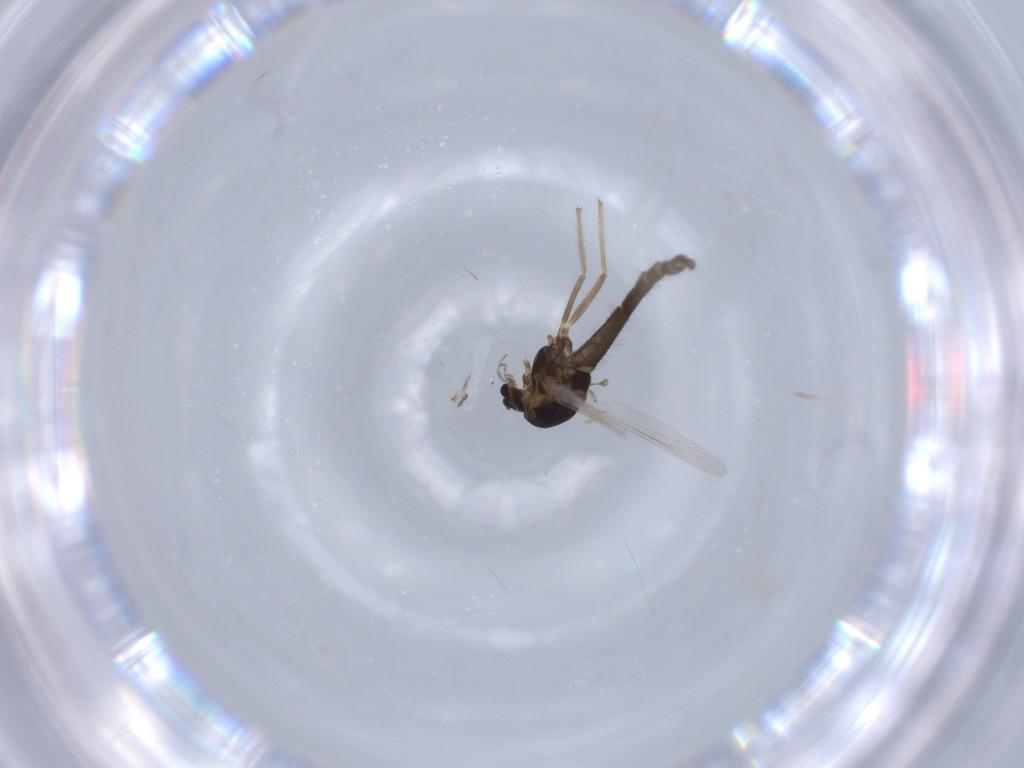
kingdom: Animalia
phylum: Arthropoda
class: Insecta
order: Diptera
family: Chironomidae
